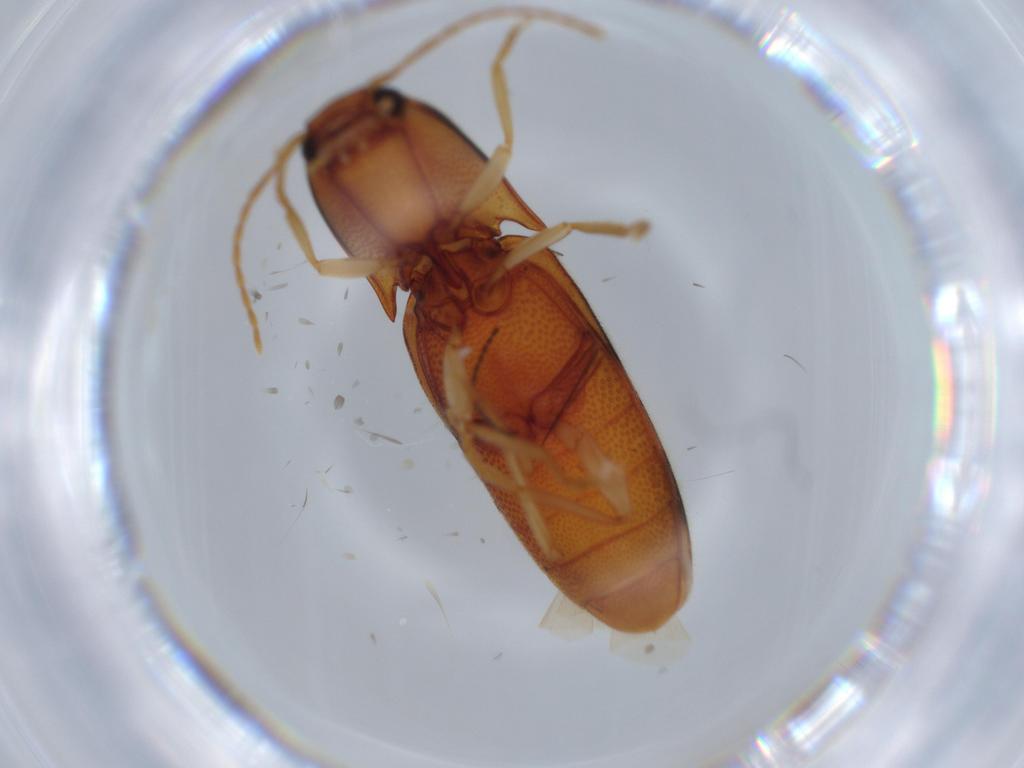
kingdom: Animalia
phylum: Arthropoda
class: Insecta
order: Coleoptera
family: Elateridae
